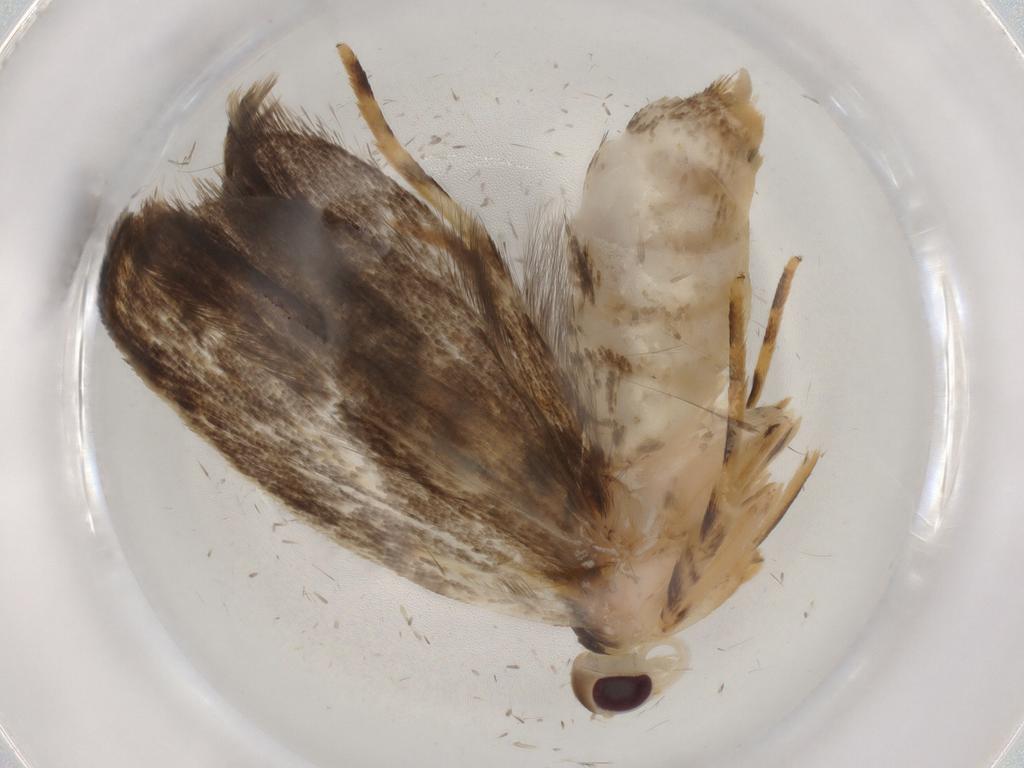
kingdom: Animalia
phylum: Arthropoda
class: Insecta
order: Lepidoptera
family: Gelechiidae
